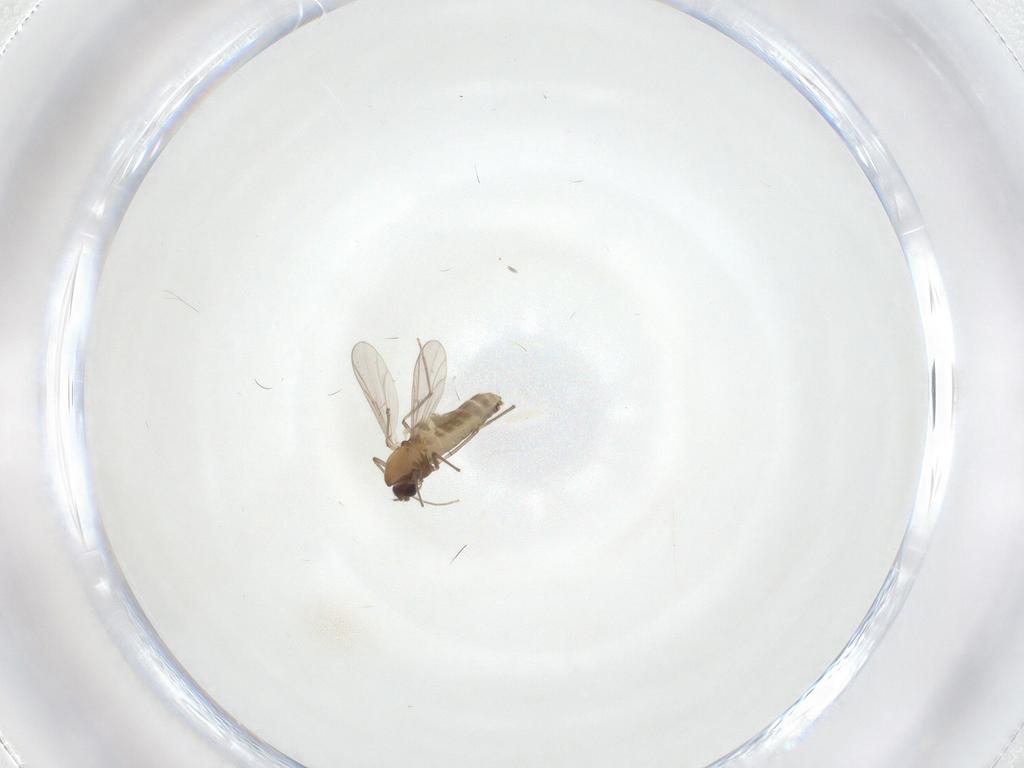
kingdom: Animalia
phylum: Arthropoda
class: Insecta
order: Diptera
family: Chironomidae
